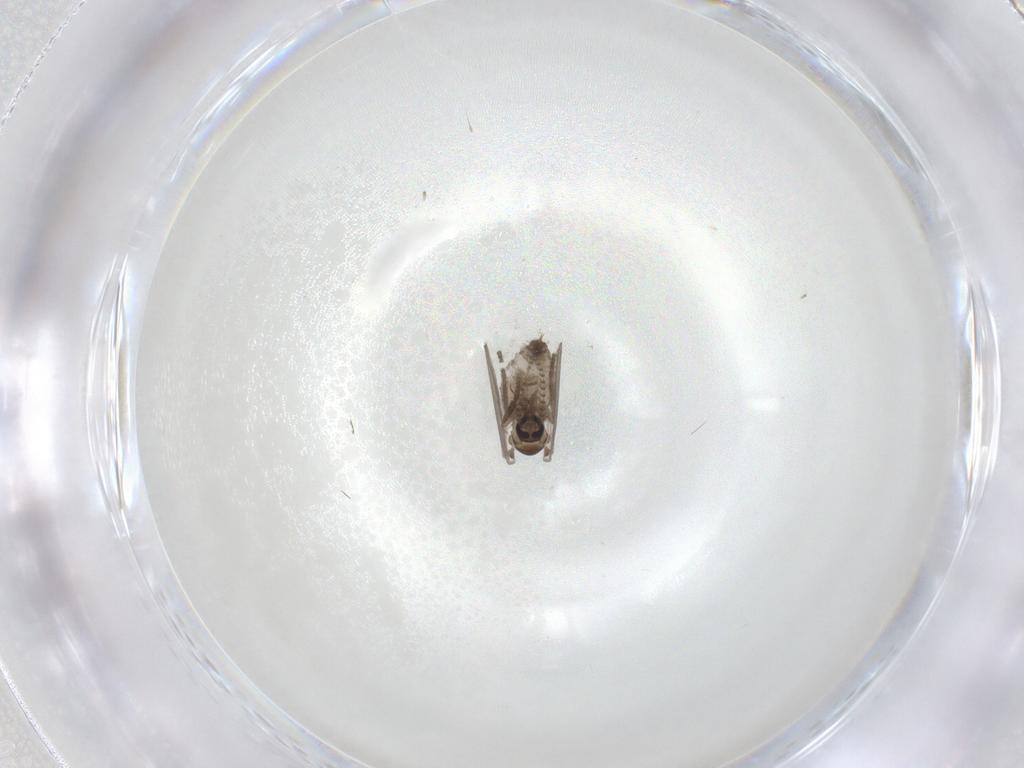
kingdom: Animalia
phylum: Arthropoda
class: Insecta
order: Diptera
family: Psychodidae
